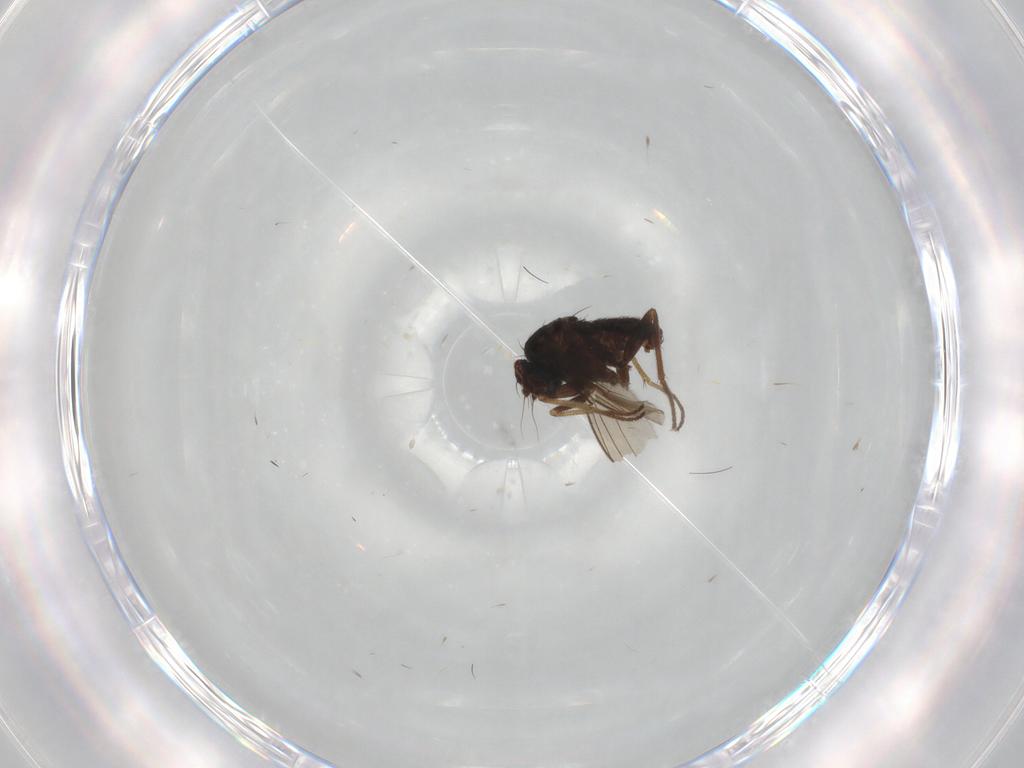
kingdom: Animalia
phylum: Arthropoda
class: Insecta
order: Diptera
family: Dolichopodidae
